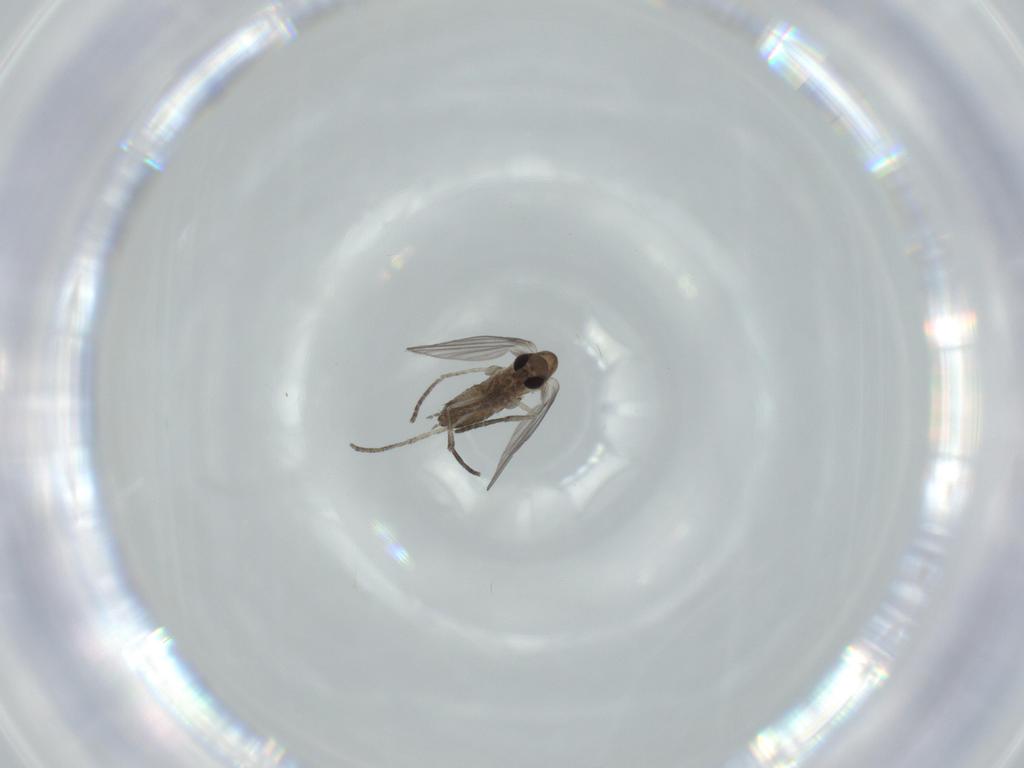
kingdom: Animalia
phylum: Arthropoda
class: Insecta
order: Diptera
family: Psychodidae
